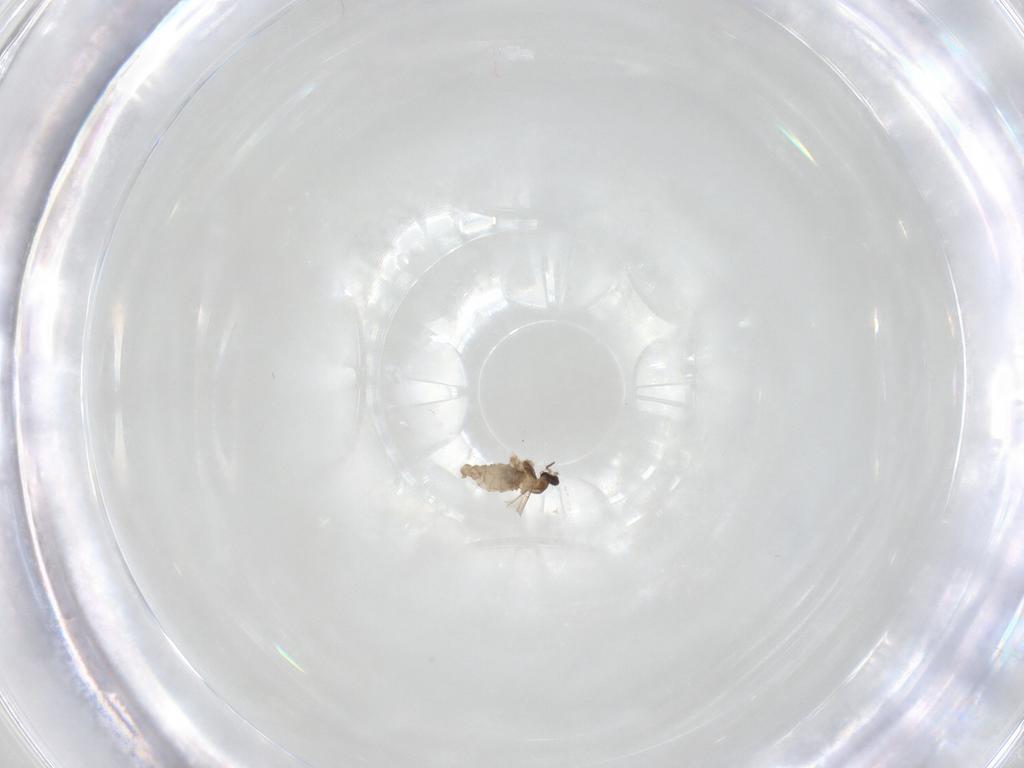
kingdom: Animalia
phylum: Arthropoda
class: Insecta
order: Diptera
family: Cecidomyiidae
